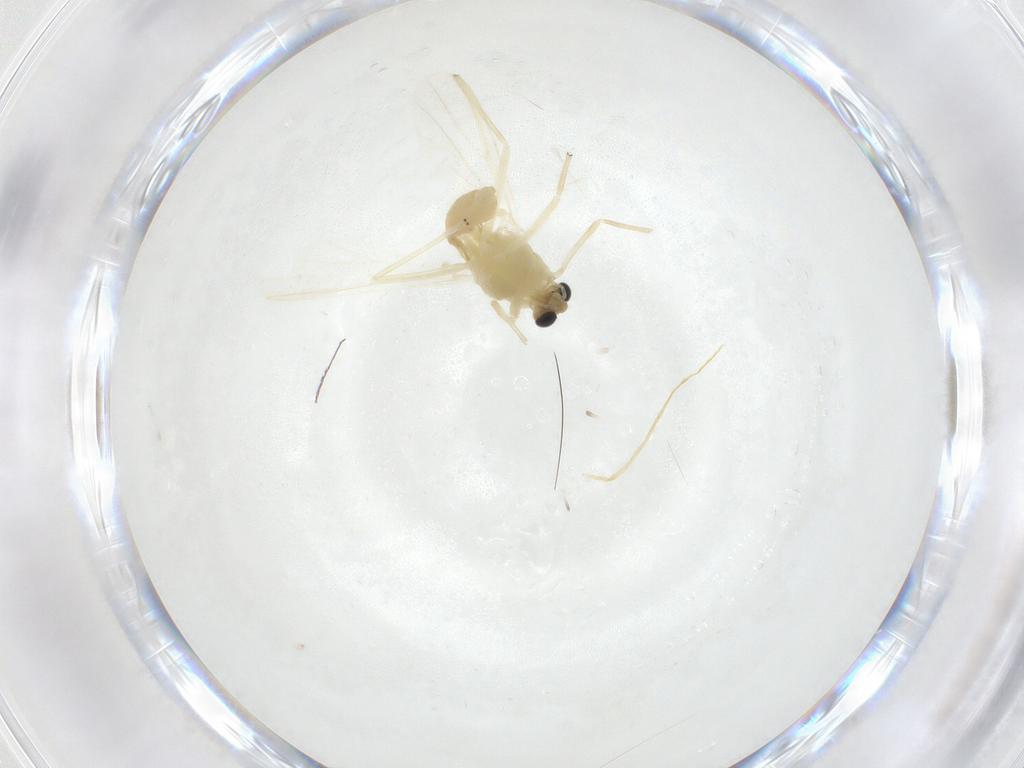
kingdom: Animalia
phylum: Arthropoda
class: Insecta
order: Diptera
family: Chironomidae
